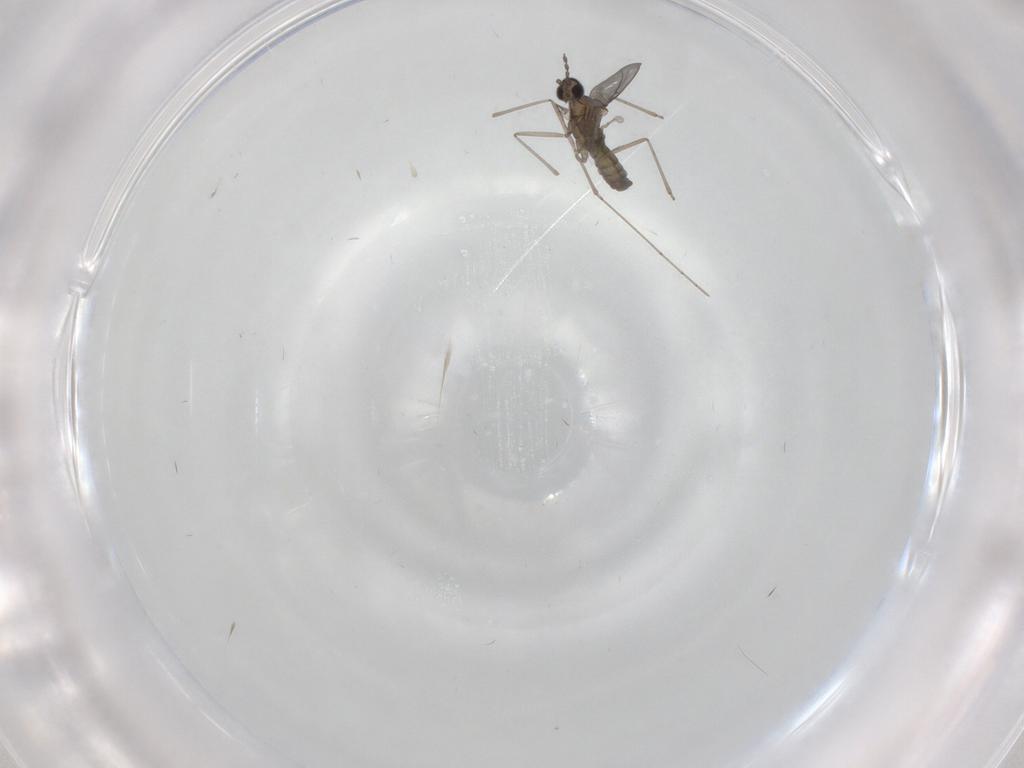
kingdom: Animalia
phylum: Arthropoda
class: Insecta
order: Diptera
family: Cecidomyiidae
